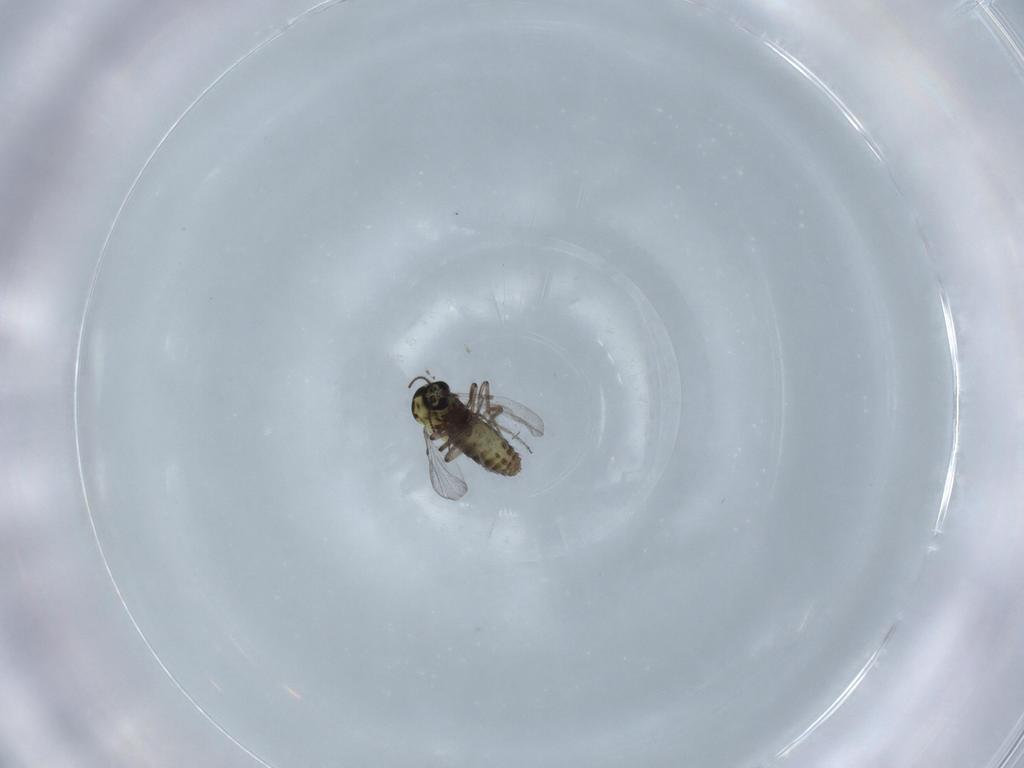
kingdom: Animalia
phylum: Arthropoda
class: Insecta
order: Diptera
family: Ceratopogonidae
